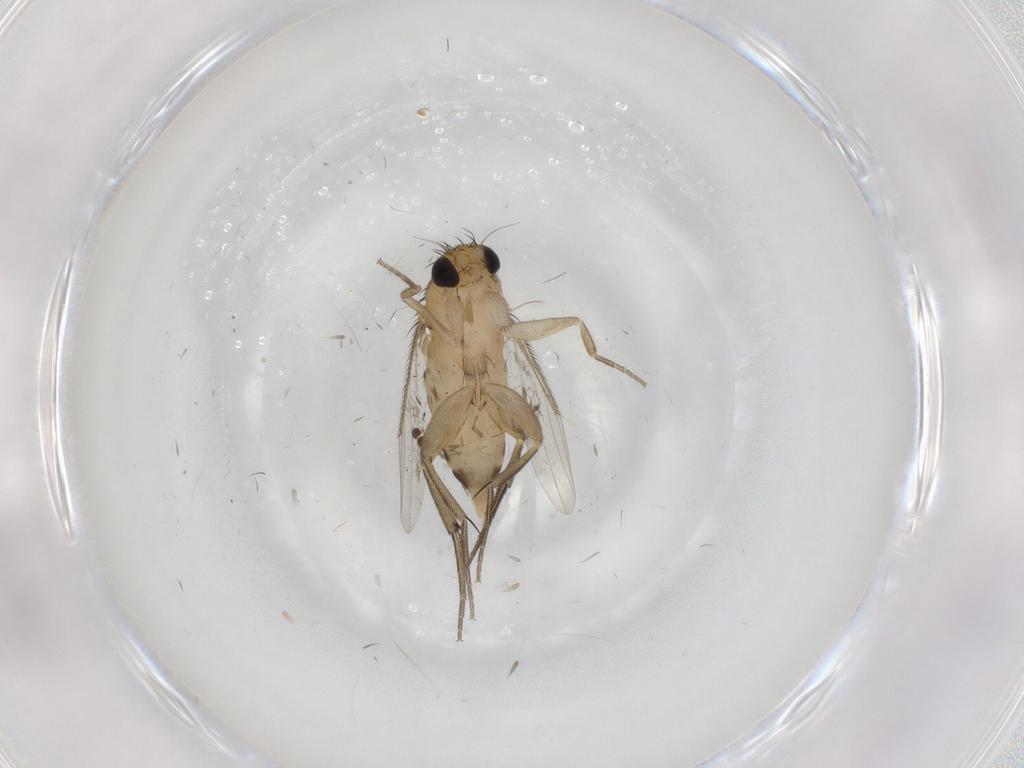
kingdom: Animalia
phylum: Arthropoda
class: Insecta
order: Diptera
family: Phoridae
